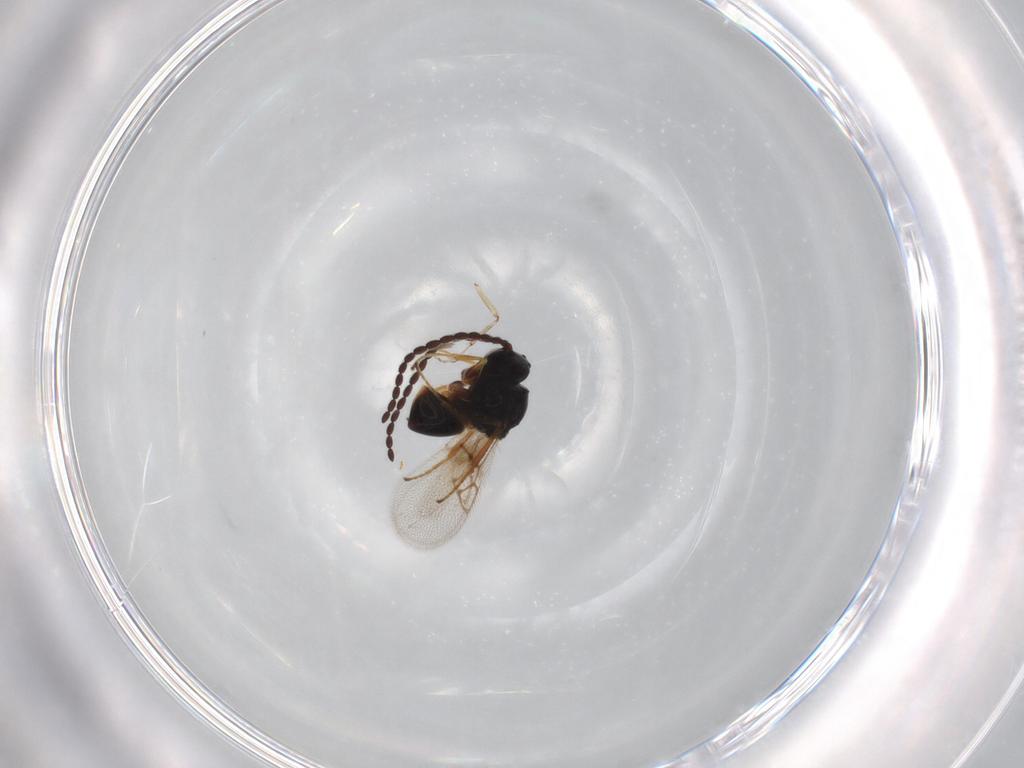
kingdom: Animalia
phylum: Arthropoda
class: Insecta
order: Hymenoptera
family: Figitidae
